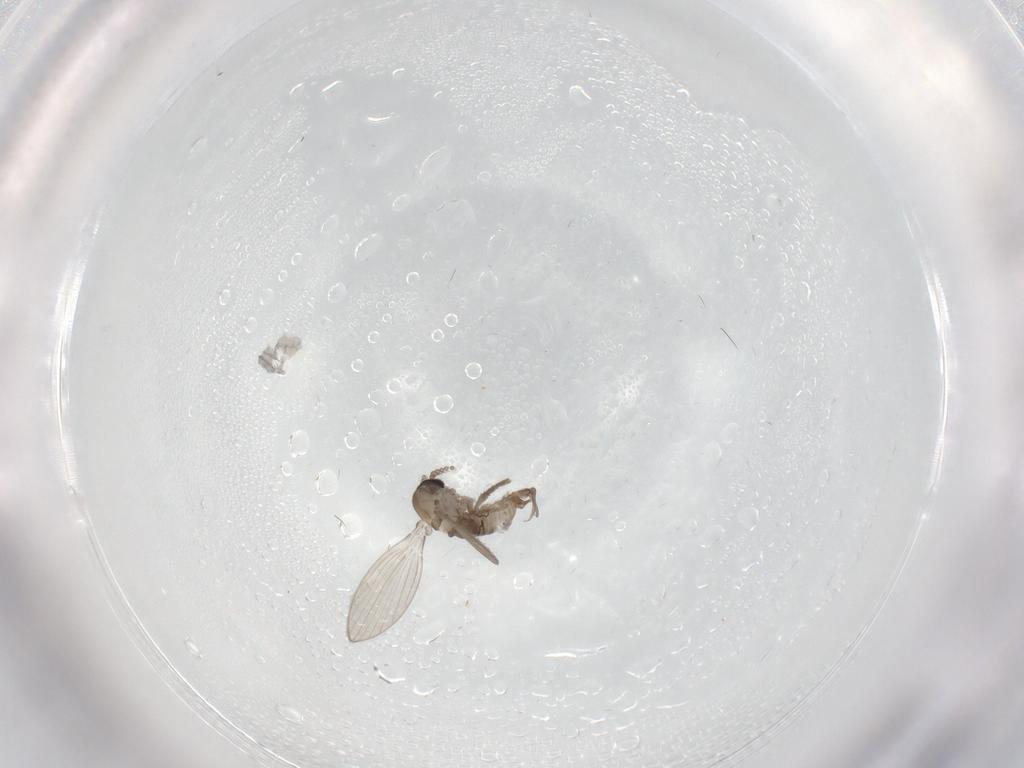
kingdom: Animalia
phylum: Arthropoda
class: Insecta
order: Diptera
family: Psychodidae
